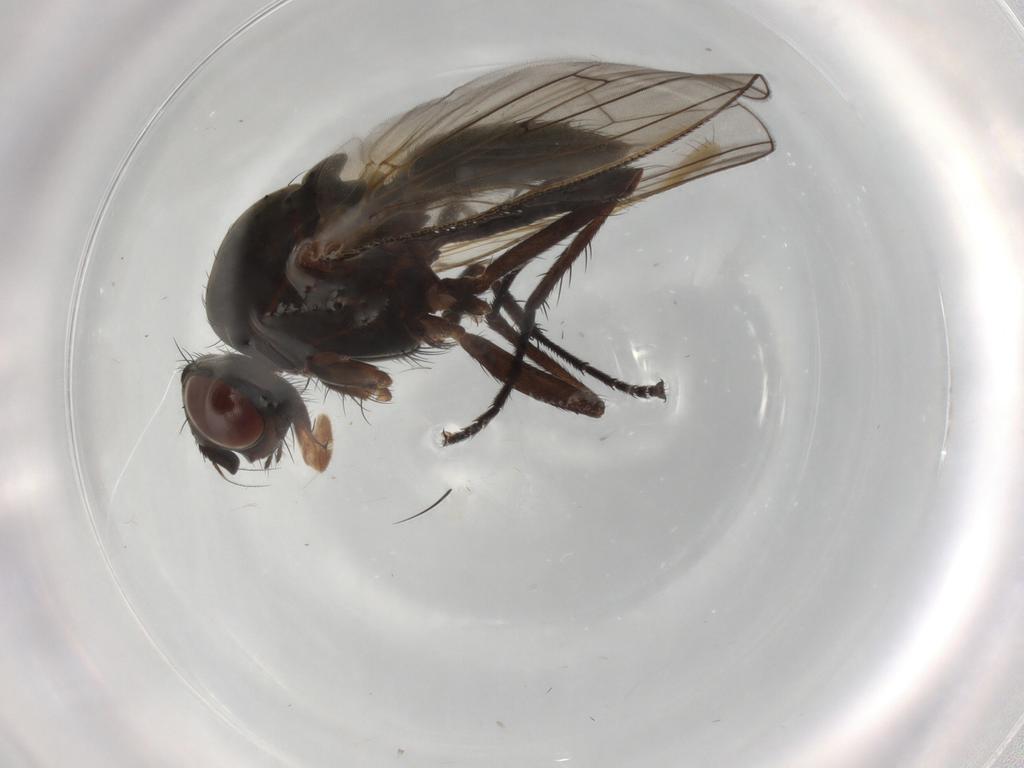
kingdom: Animalia
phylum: Arthropoda
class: Insecta
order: Diptera
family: Anthomyiidae
